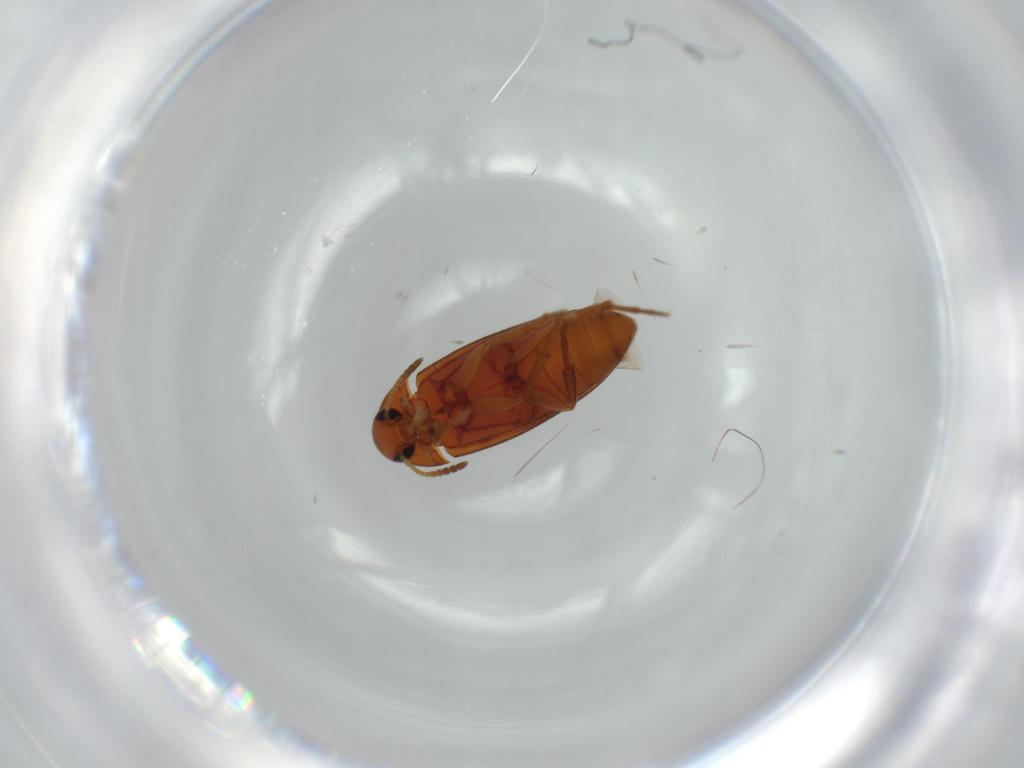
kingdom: Animalia
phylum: Arthropoda
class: Insecta
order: Coleoptera
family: Scraptiidae
